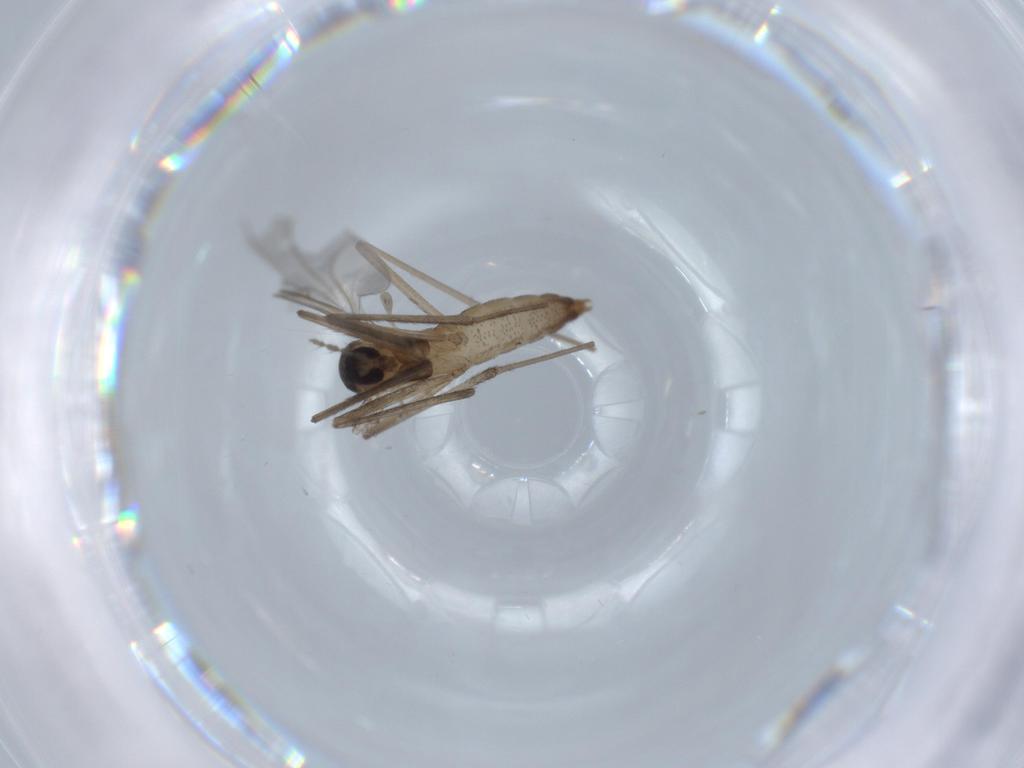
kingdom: Animalia
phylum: Arthropoda
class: Insecta
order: Diptera
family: Cecidomyiidae
